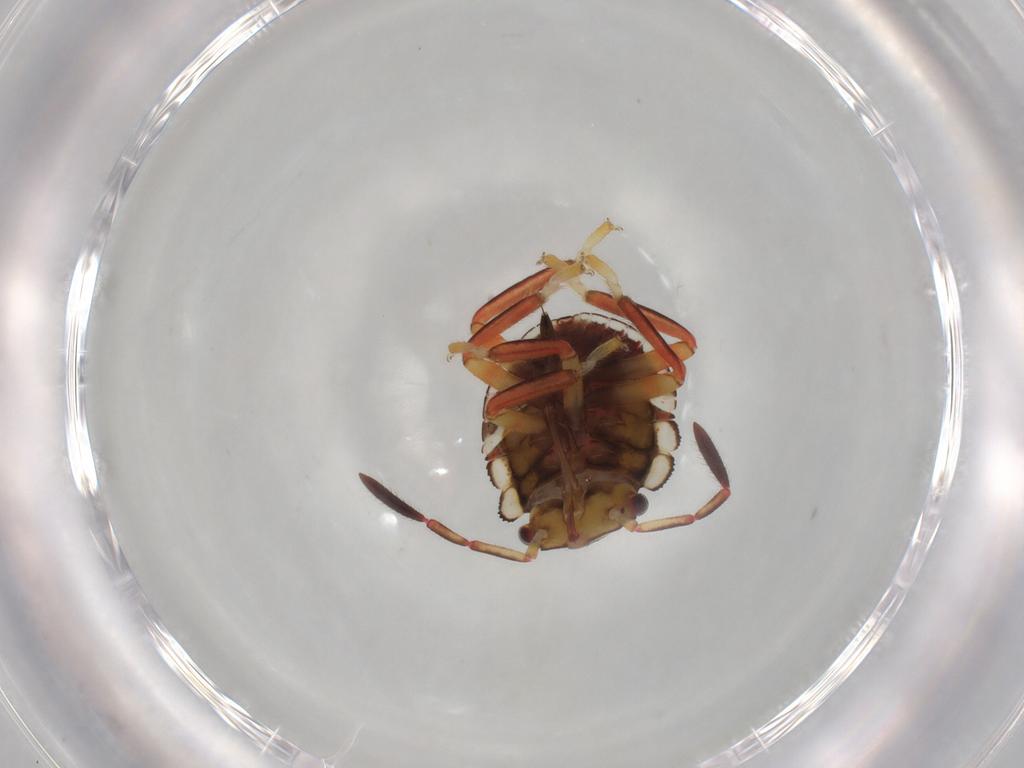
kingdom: Animalia
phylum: Arthropoda
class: Insecta
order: Hemiptera
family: Pentatomidae
